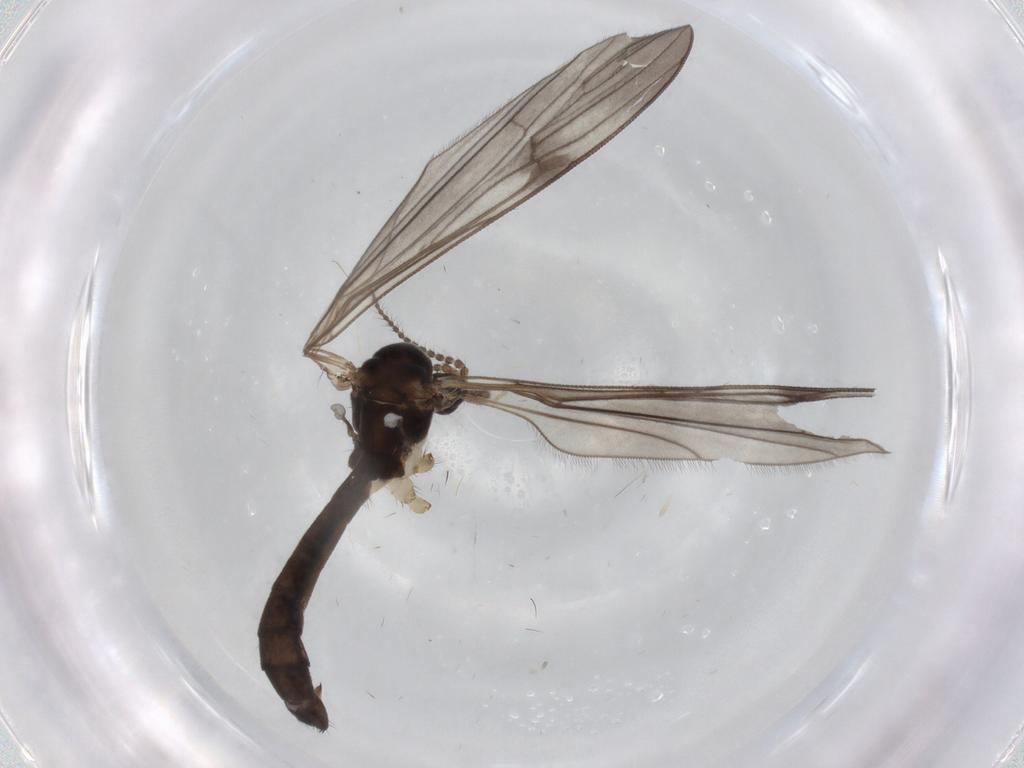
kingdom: Animalia
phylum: Arthropoda
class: Insecta
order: Diptera
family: Limoniidae
